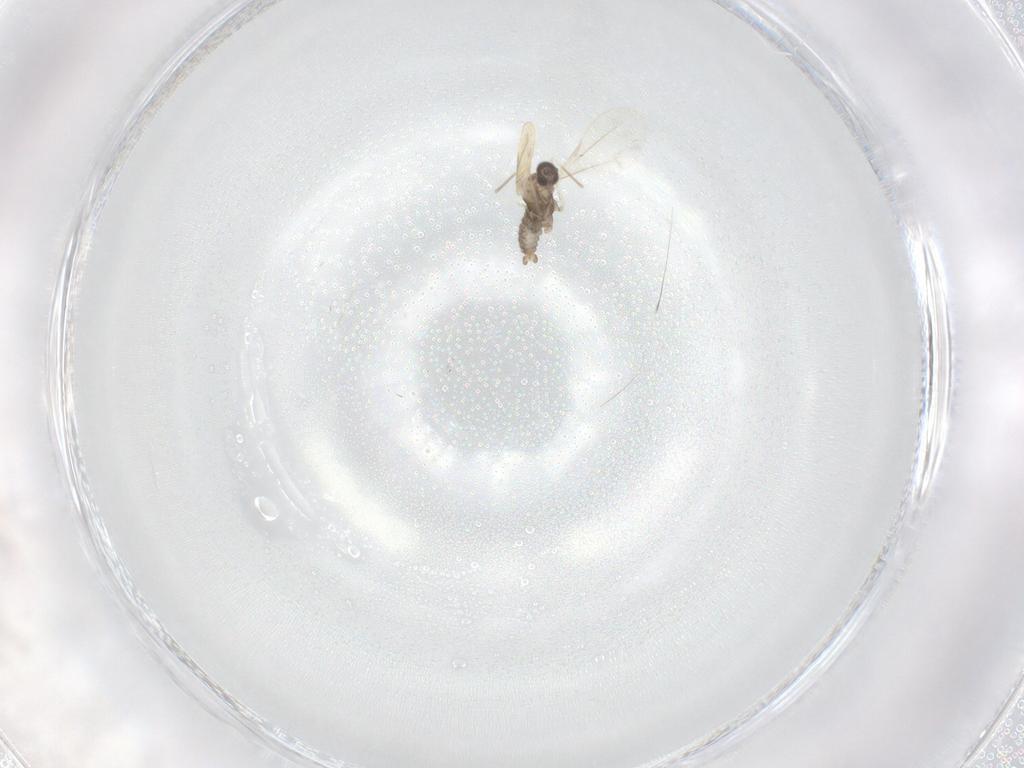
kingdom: Animalia
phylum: Arthropoda
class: Insecta
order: Diptera
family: Cecidomyiidae
